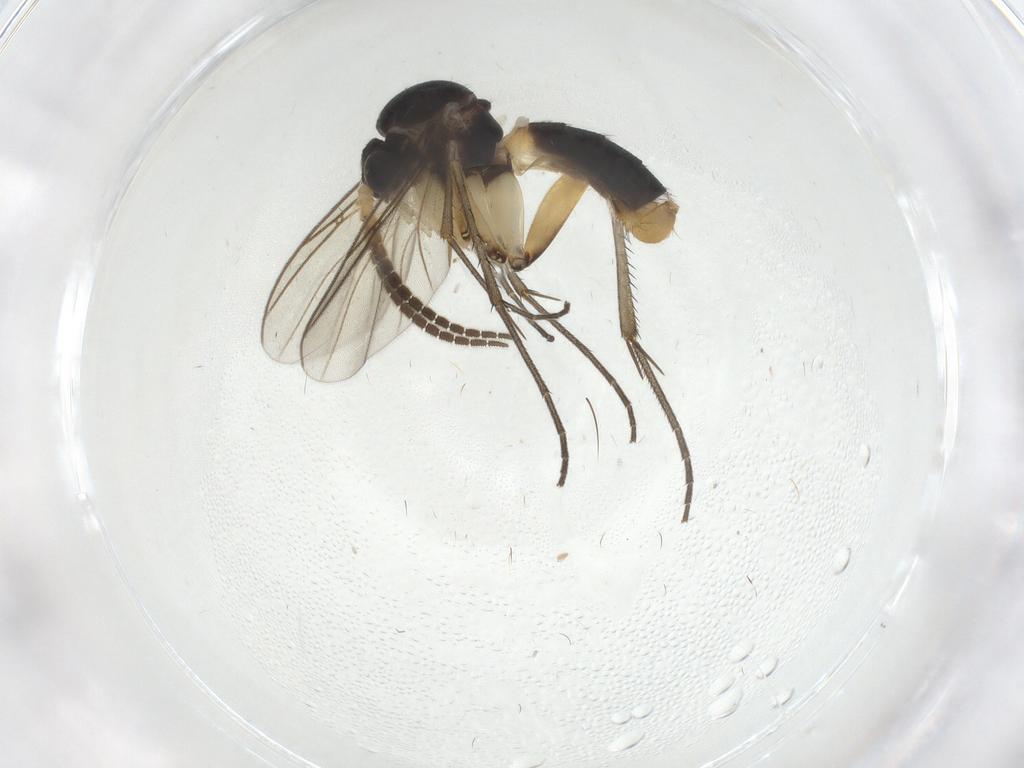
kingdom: Animalia
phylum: Arthropoda
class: Insecta
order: Diptera
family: Mycetophilidae
